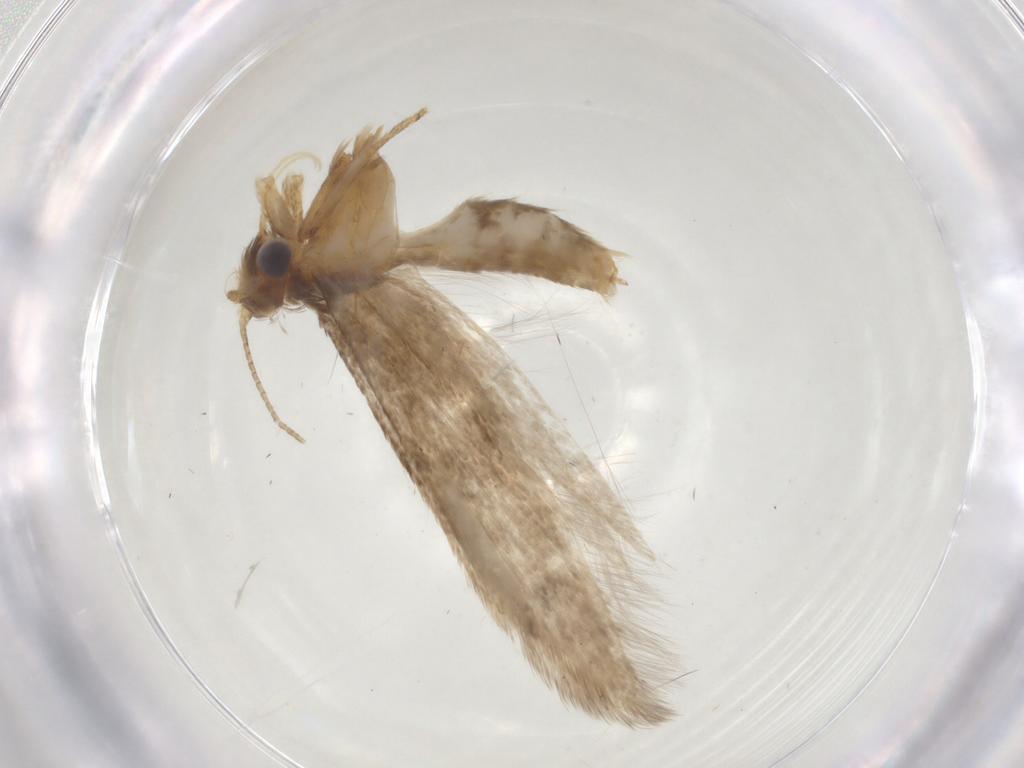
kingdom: Animalia
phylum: Arthropoda
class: Insecta
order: Lepidoptera
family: Coleophoridae
